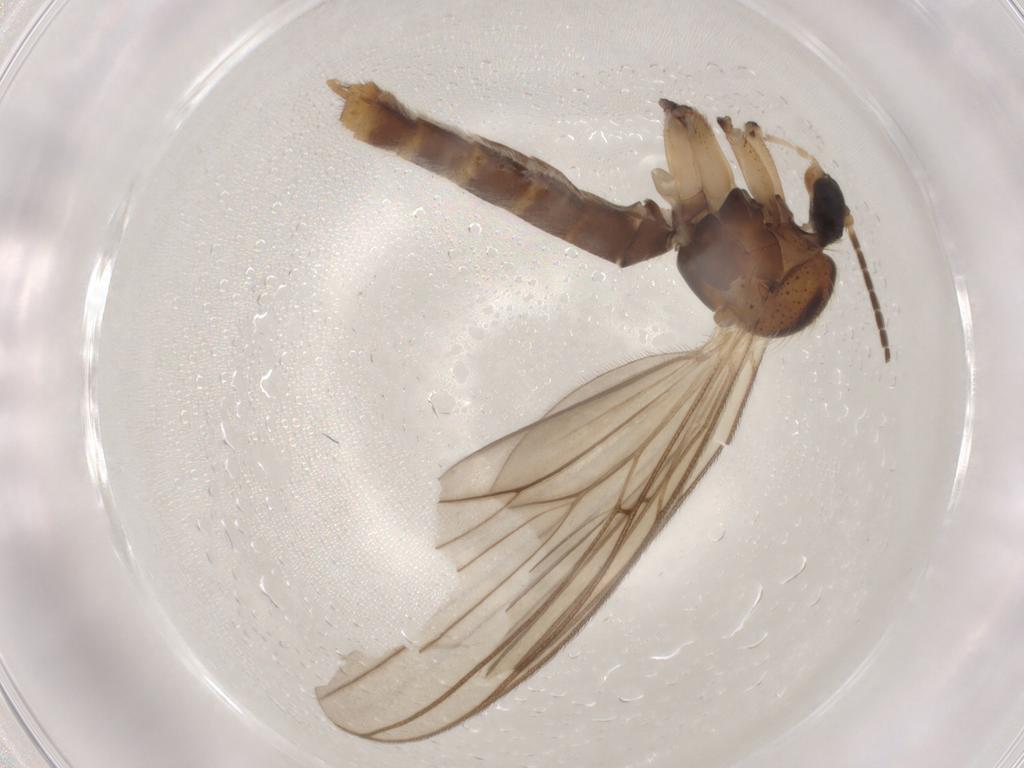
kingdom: Animalia
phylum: Arthropoda
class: Insecta
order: Diptera
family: Mycetophilidae
